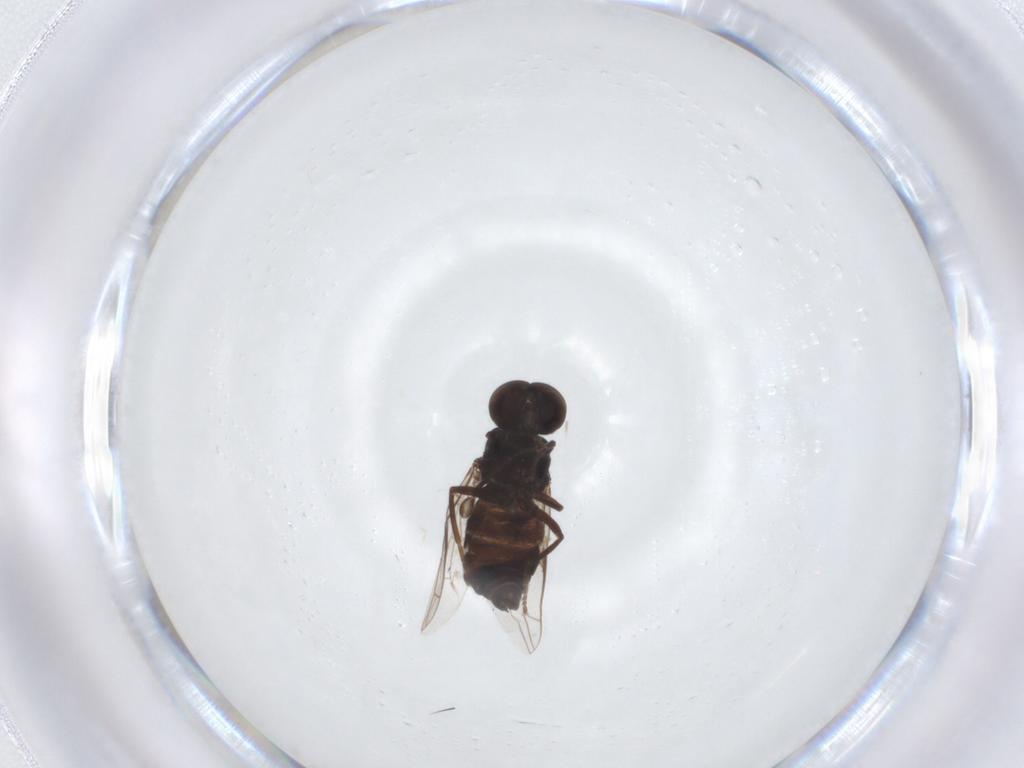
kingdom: Animalia
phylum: Arthropoda
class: Insecta
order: Diptera
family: Scenopinidae
